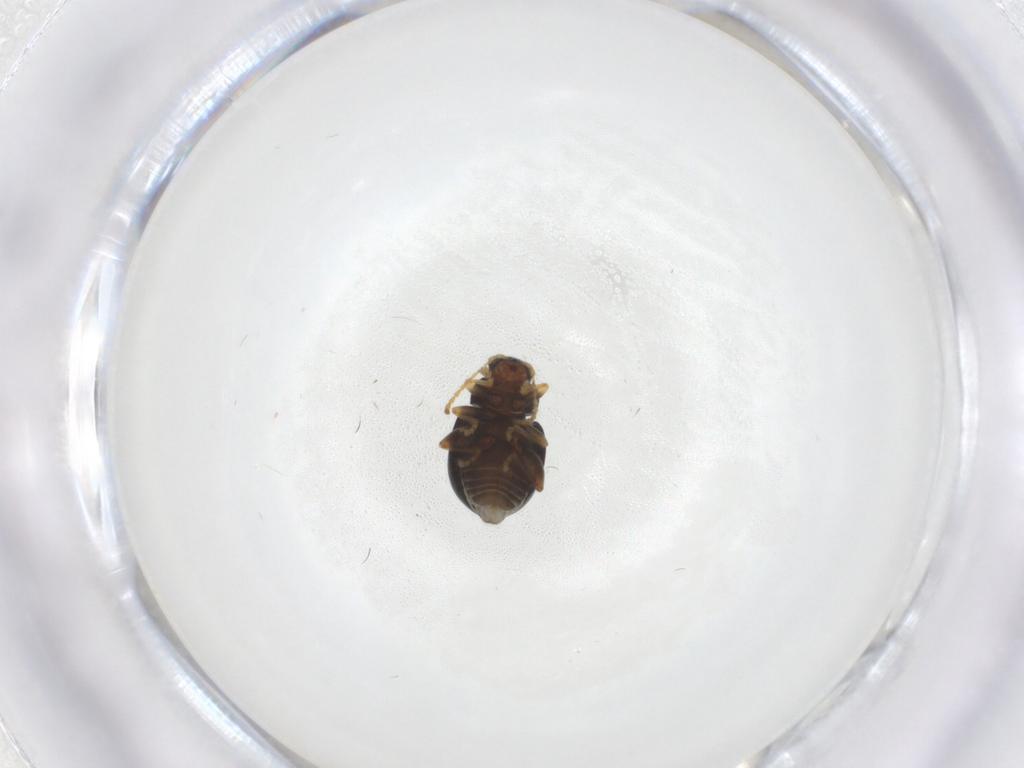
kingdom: Animalia
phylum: Arthropoda
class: Insecta
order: Coleoptera
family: Chrysomelidae
